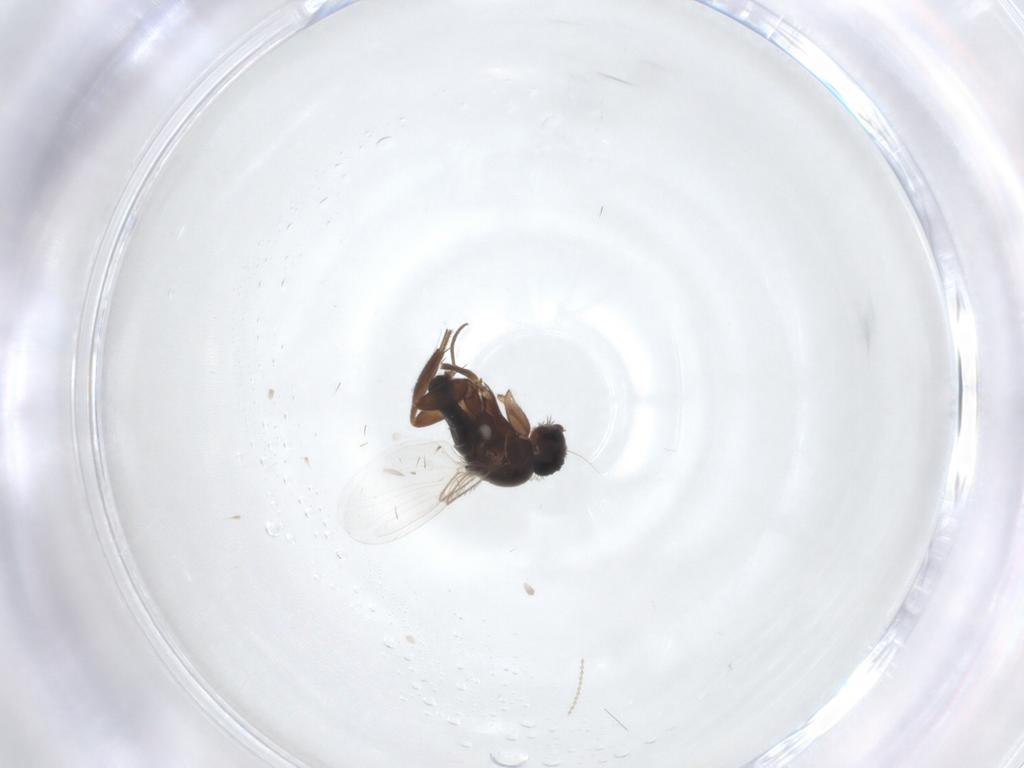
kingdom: Animalia
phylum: Arthropoda
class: Insecta
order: Diptera
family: Phoridae
